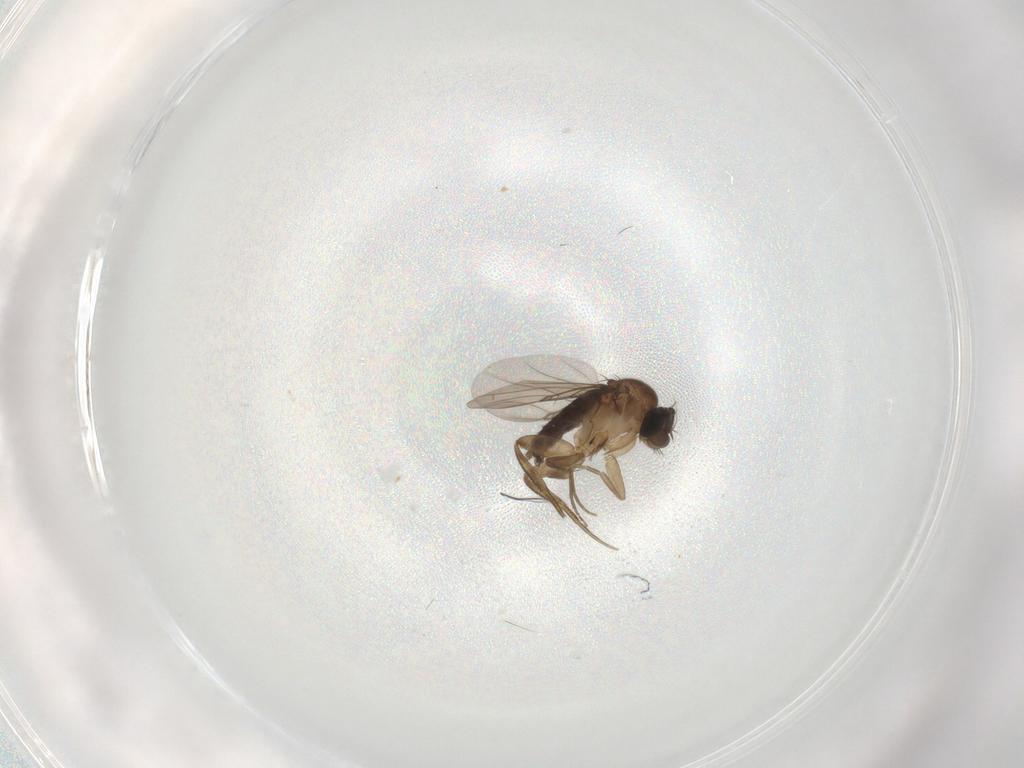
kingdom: Animalia
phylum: Arthropoda
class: Insecta
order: Diptera
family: Phoridae
